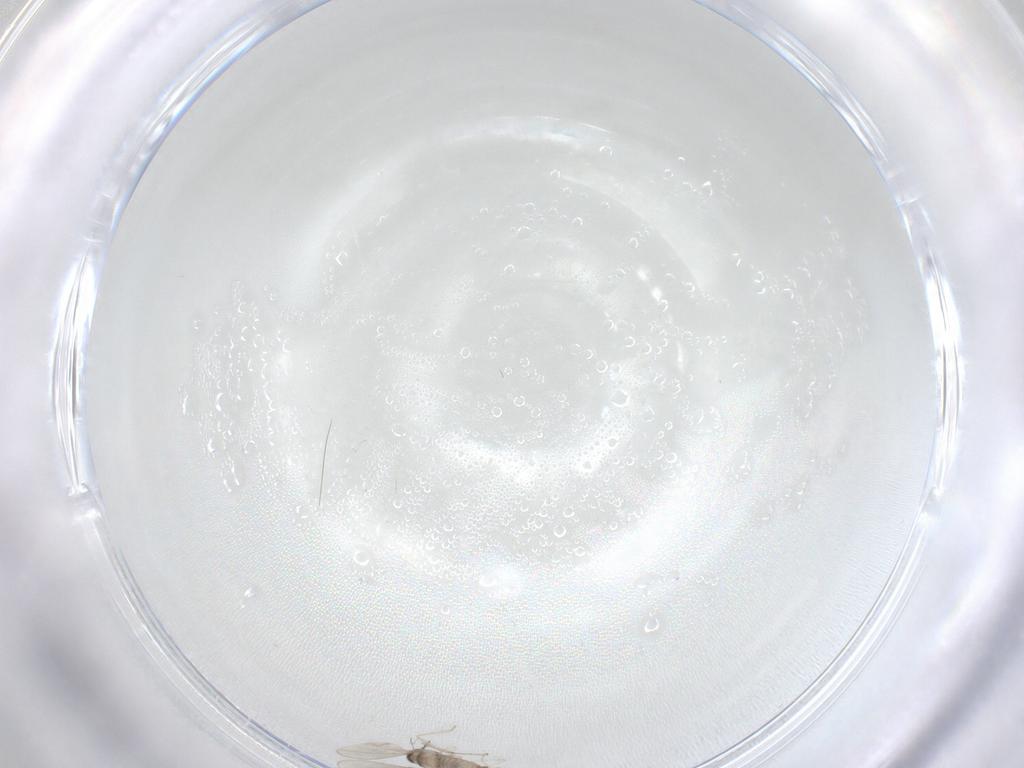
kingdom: Animalia
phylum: Arthropoda
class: Insecta
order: Diptera
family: Cecidomyiidae
